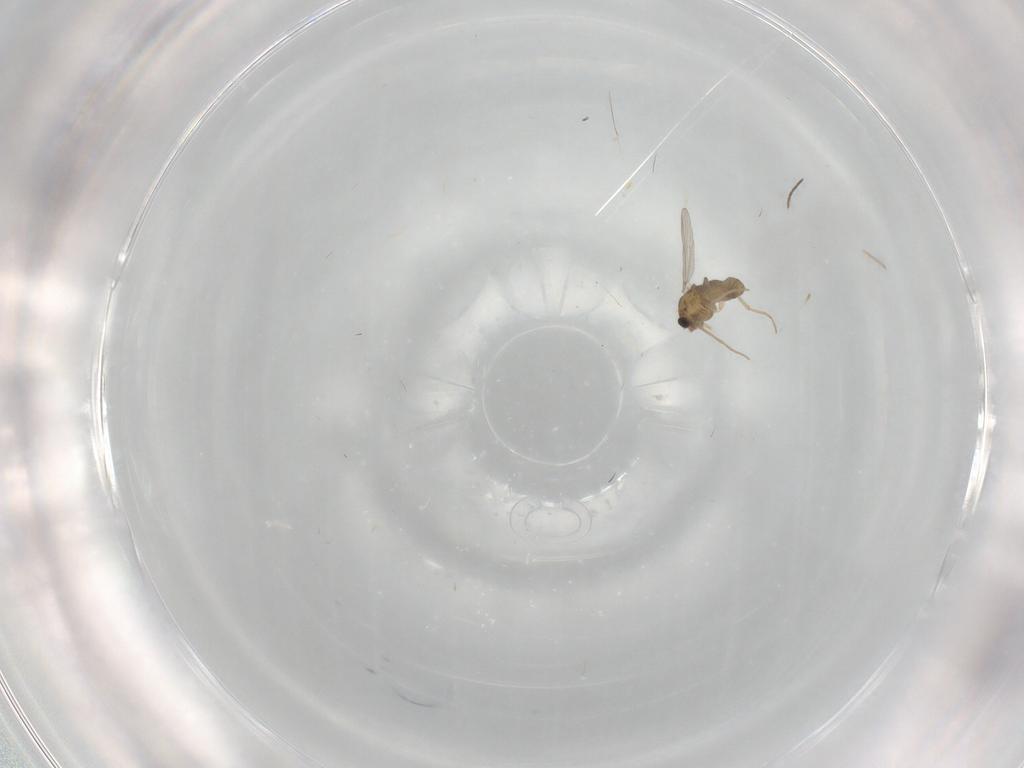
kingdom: Animalia
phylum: Arthropoda
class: Insecta
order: Diptera
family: Chironomidae
